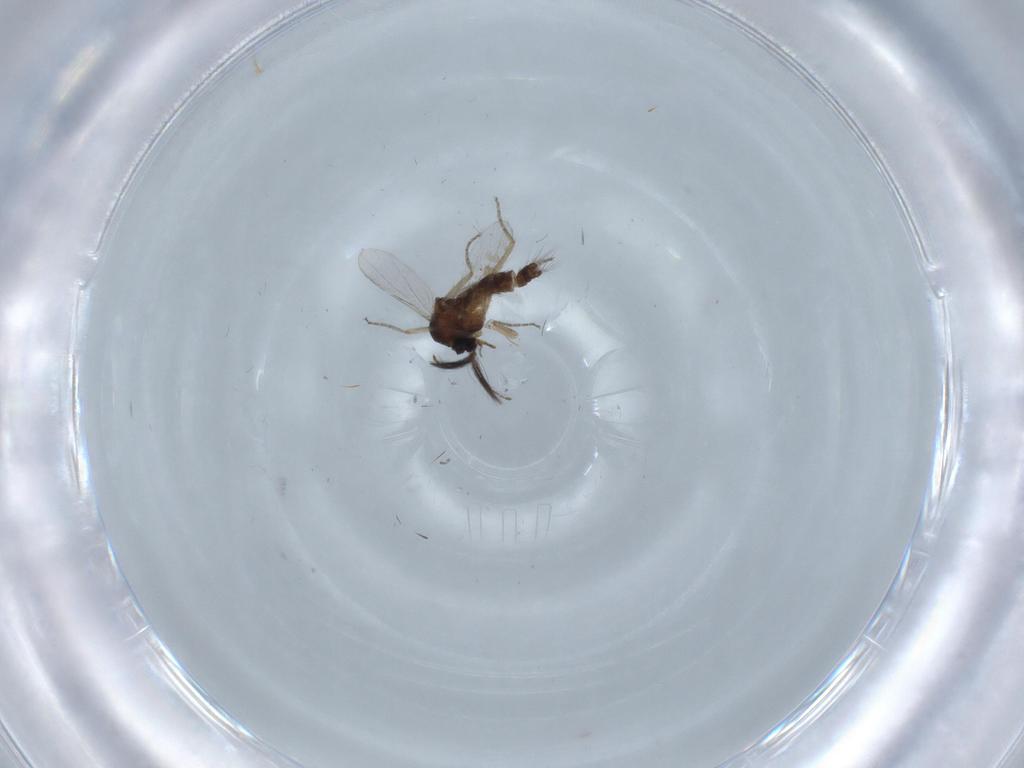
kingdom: Animalia
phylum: Arthropoda
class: Insecta
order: Diptera
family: Ceratopogonidae
